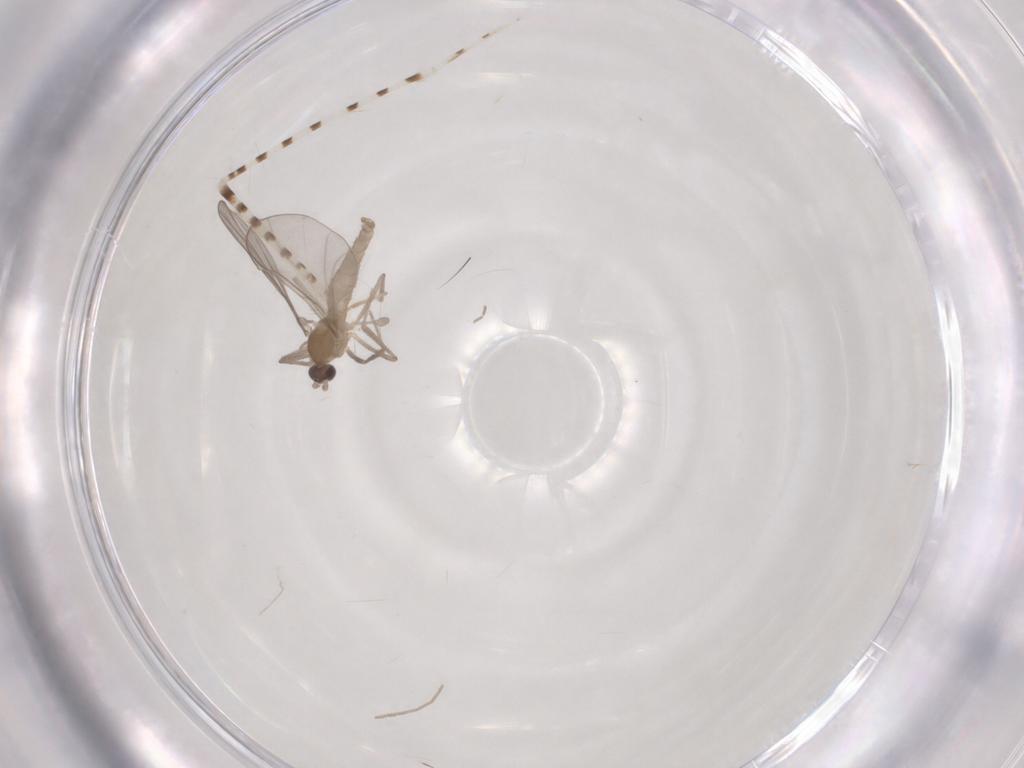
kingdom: Animalia
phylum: Arthropoda
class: Insecta
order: Diptera
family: Cecidomyiidae
